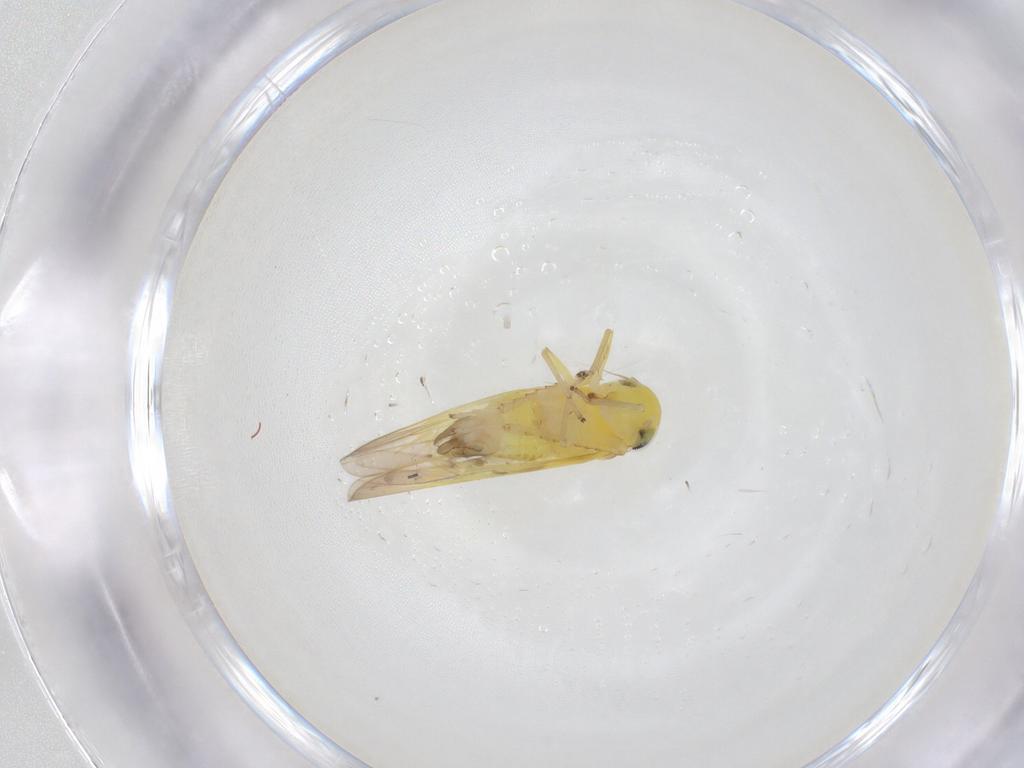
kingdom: Animalia
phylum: Arthropoda
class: Insecta
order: Hemiptera
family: Cicadellidae
